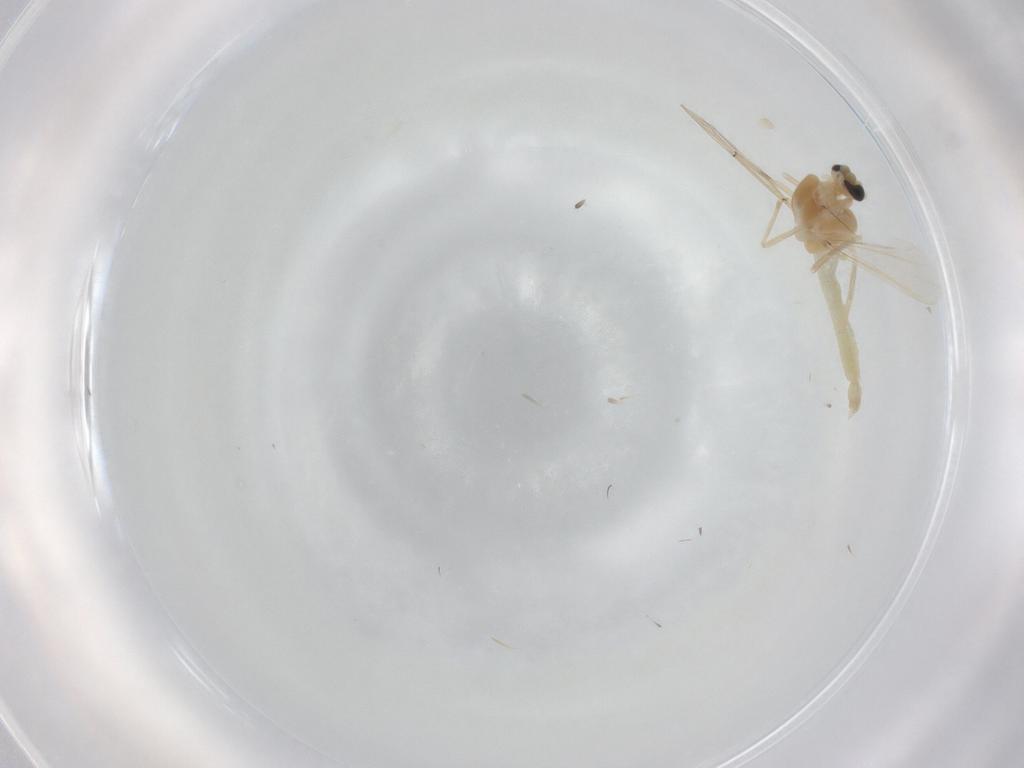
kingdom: Animalia
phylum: Arthropoda
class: Insecta
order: Diptera
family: Chironomidae
